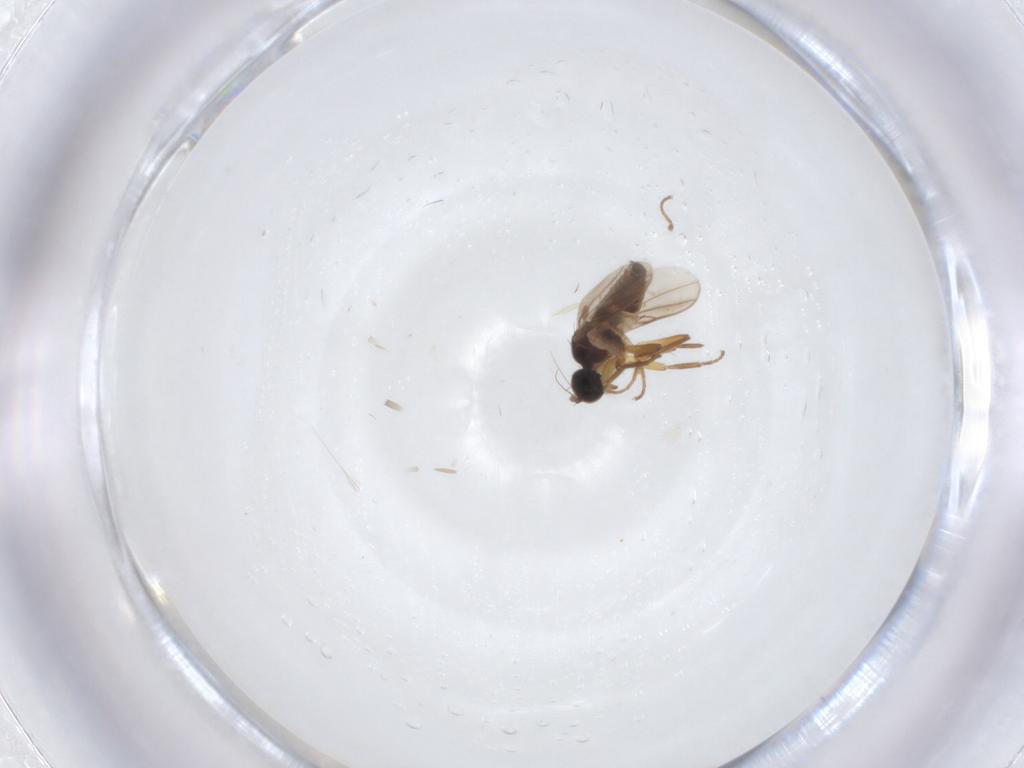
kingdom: Animalia
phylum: Arthropoda
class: Insecta
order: Diptera
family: Hybotidae
